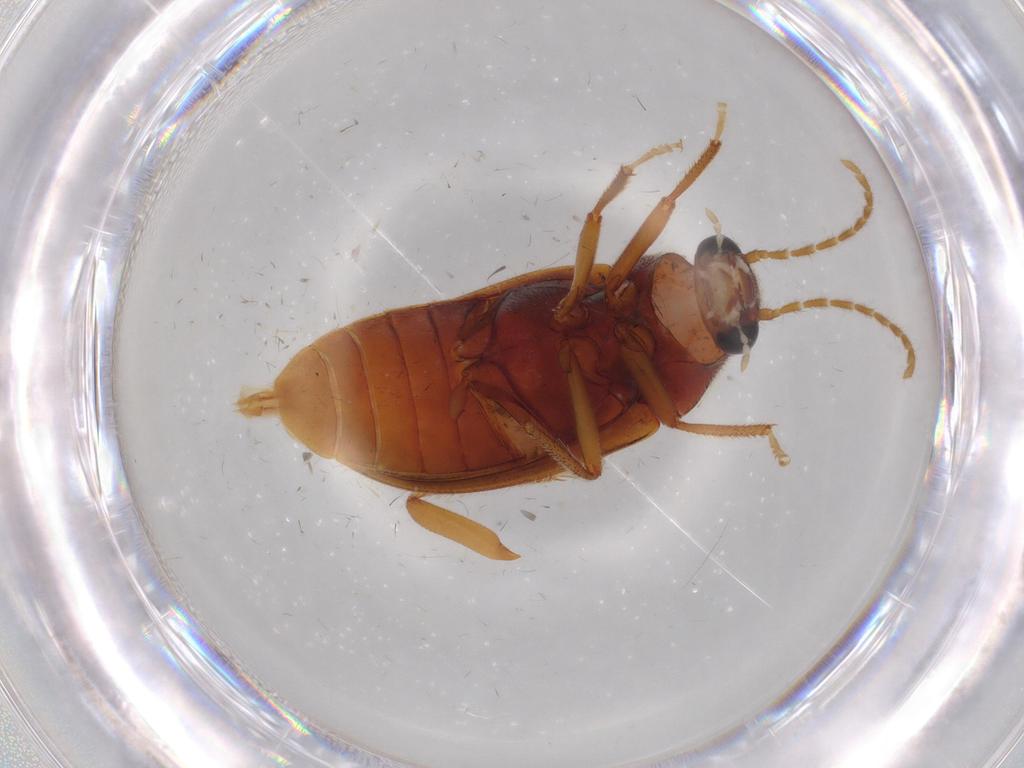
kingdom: Animalia
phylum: Arthropoda
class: Insecta
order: Coleoptera
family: Ptilodactylidae
